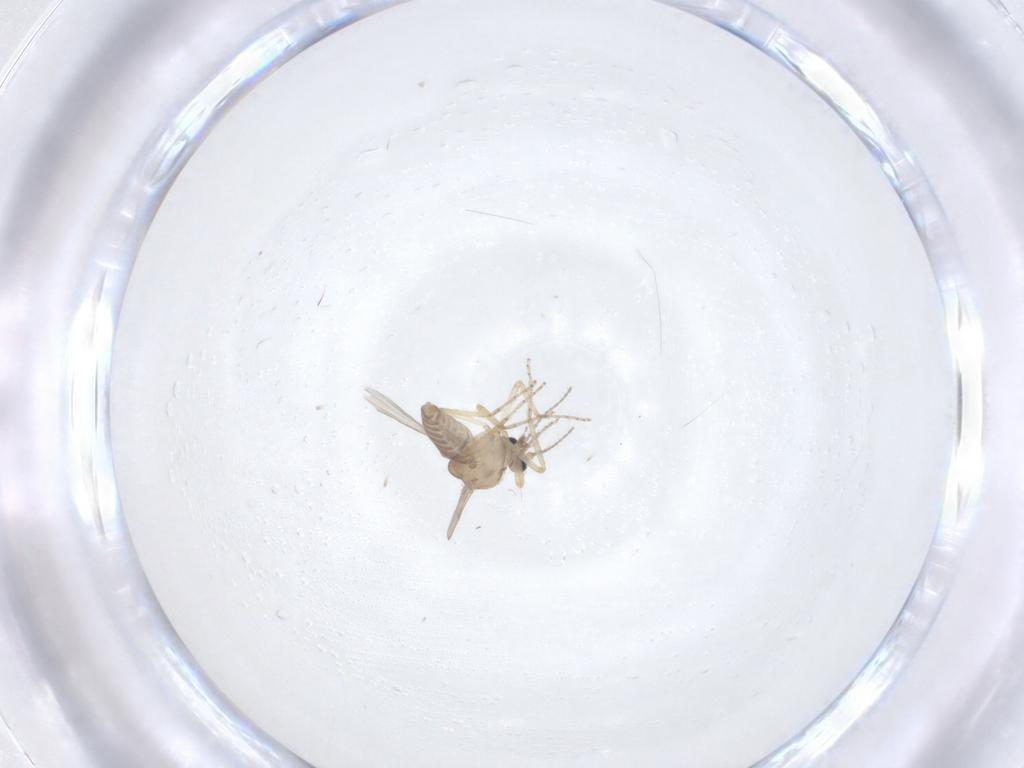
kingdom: Animalia
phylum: Arthropoda
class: Insecta
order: Diptera
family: Ceratopogonidae
